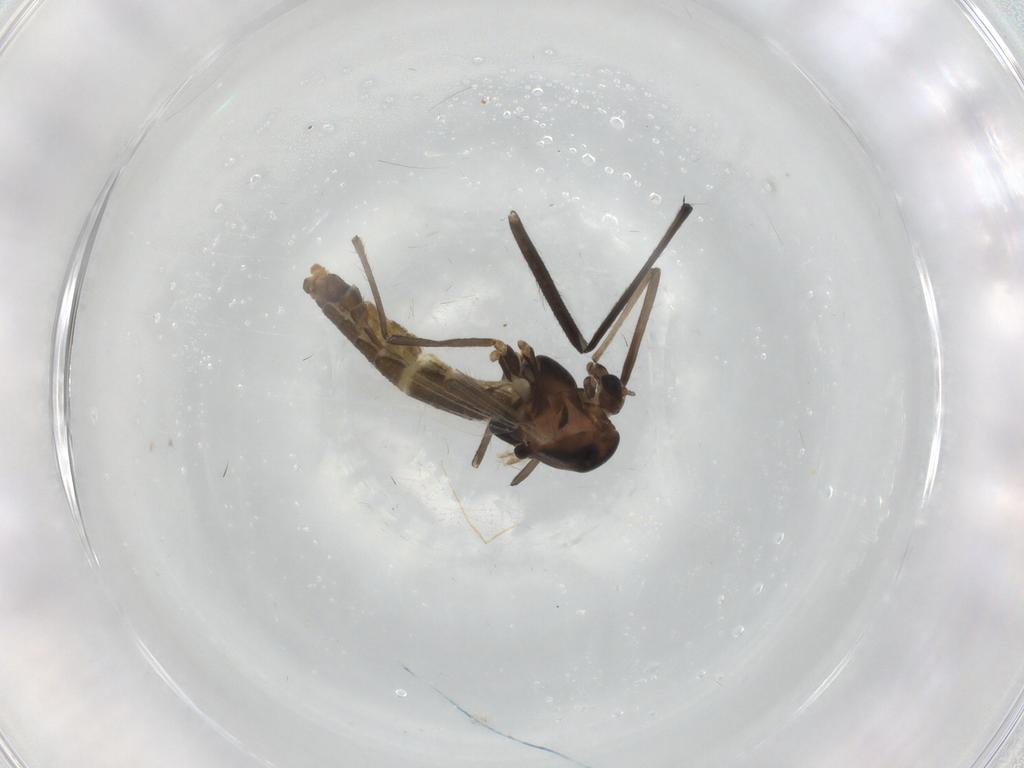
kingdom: Animalia
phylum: Arthropoda
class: Insecta
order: Diptera
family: Chironomidae
